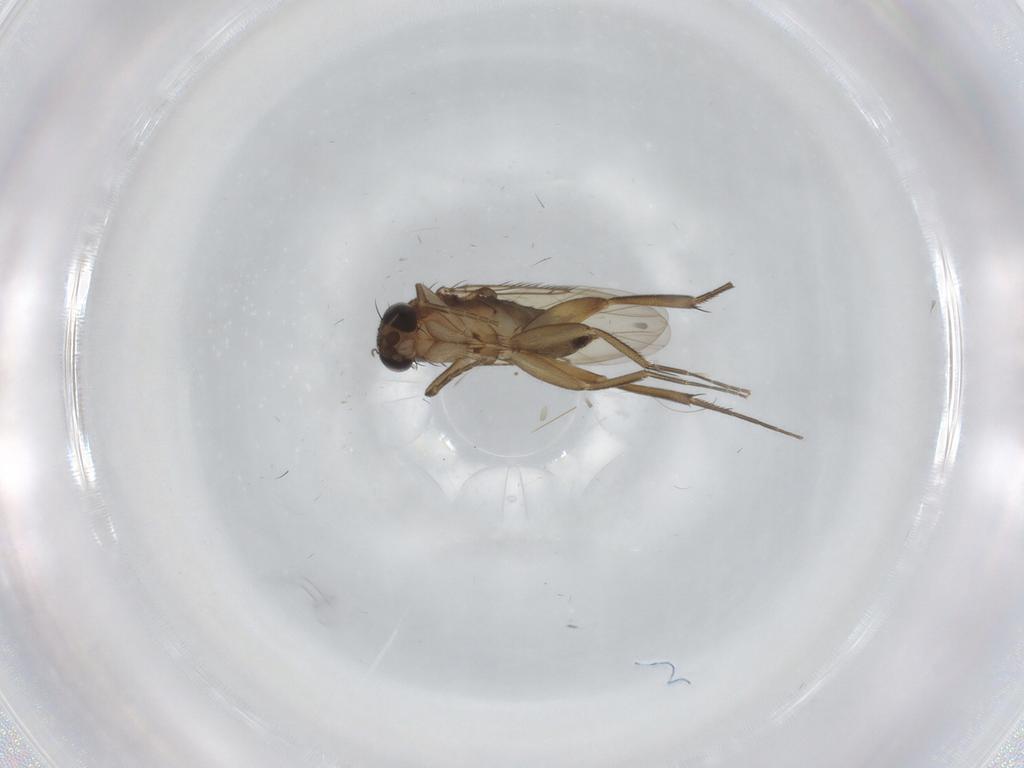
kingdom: Animalia
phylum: Arthropoda
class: Insecta
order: Diptera
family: Phoridae
